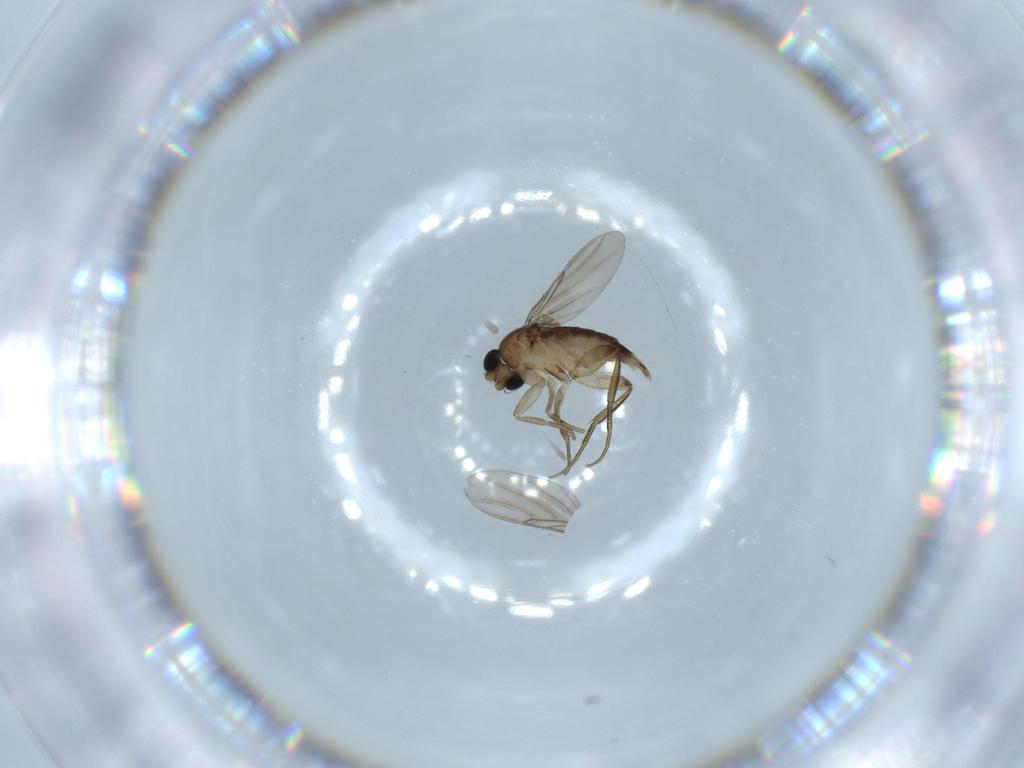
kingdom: Animalia
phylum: Arthropoda
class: Insecta
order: Diptera
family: Phoridae
